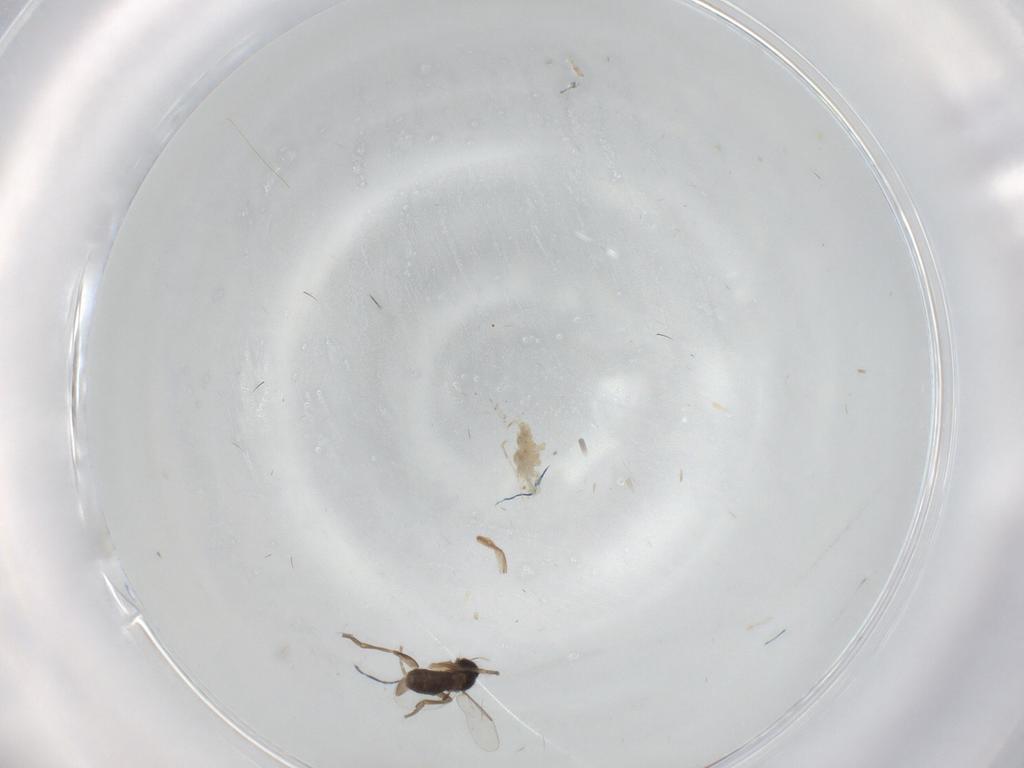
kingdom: Animalia
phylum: Arthropoda
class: Insecta
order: Diptera
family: Ceratopogonidae
